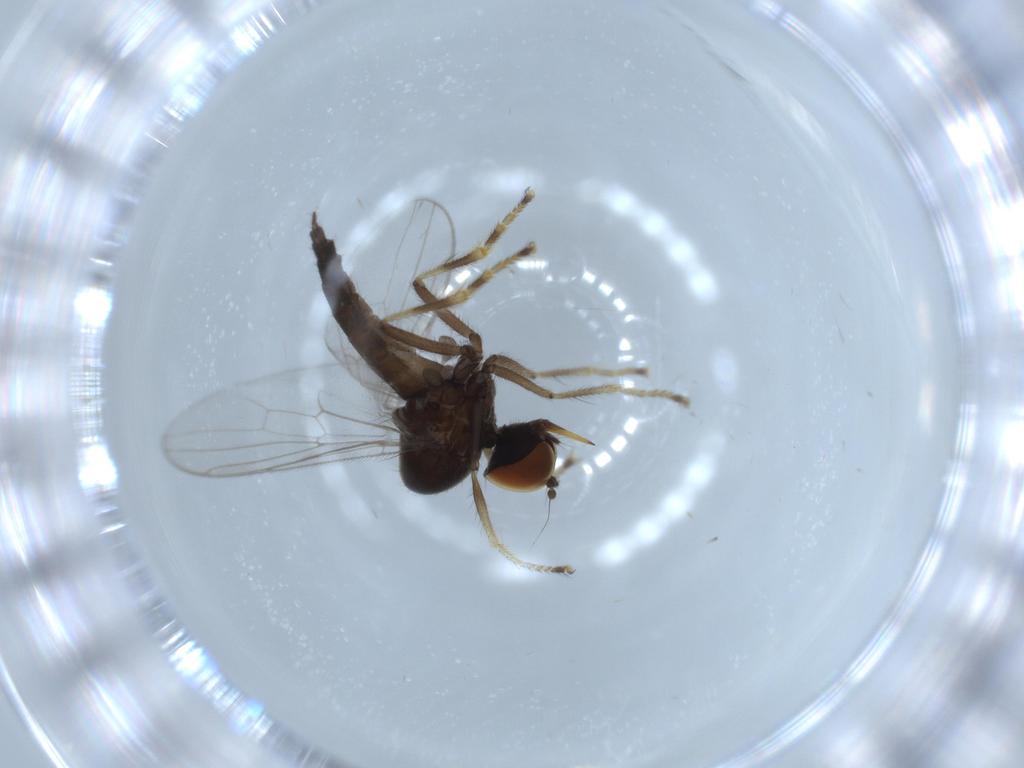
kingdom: Animalia
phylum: Arthropoda
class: Insecta
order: Diptera
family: Hybotidae
